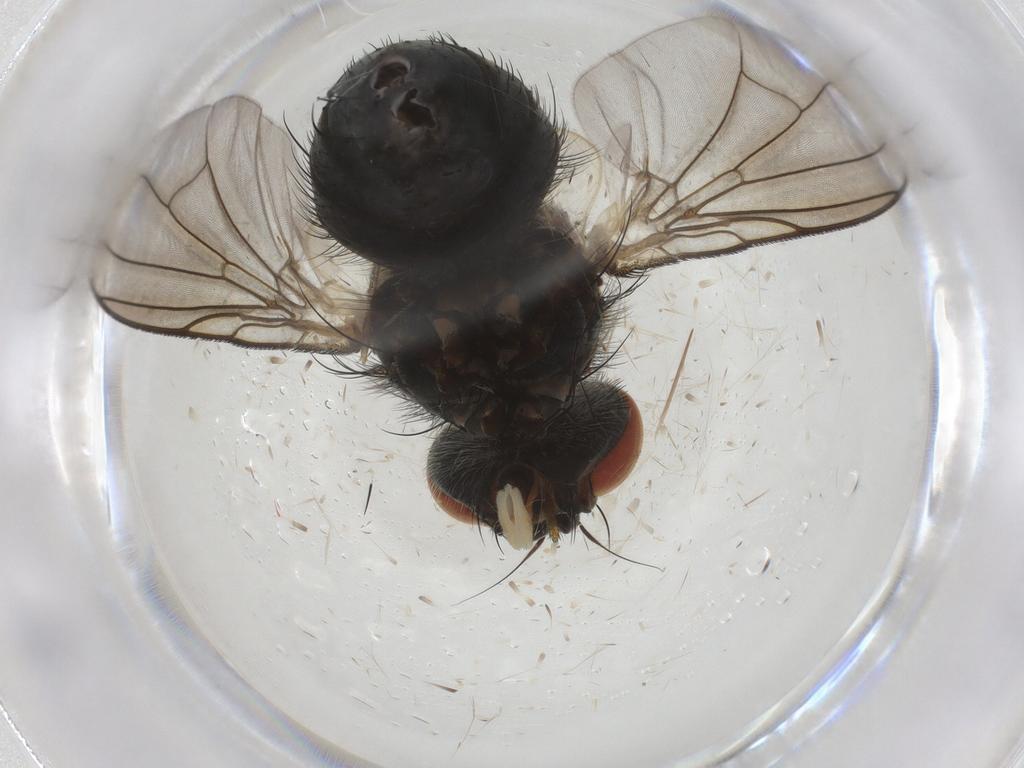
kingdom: Animalia
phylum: Arthropoda
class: Insecta
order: Diptera
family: Tachinidae
